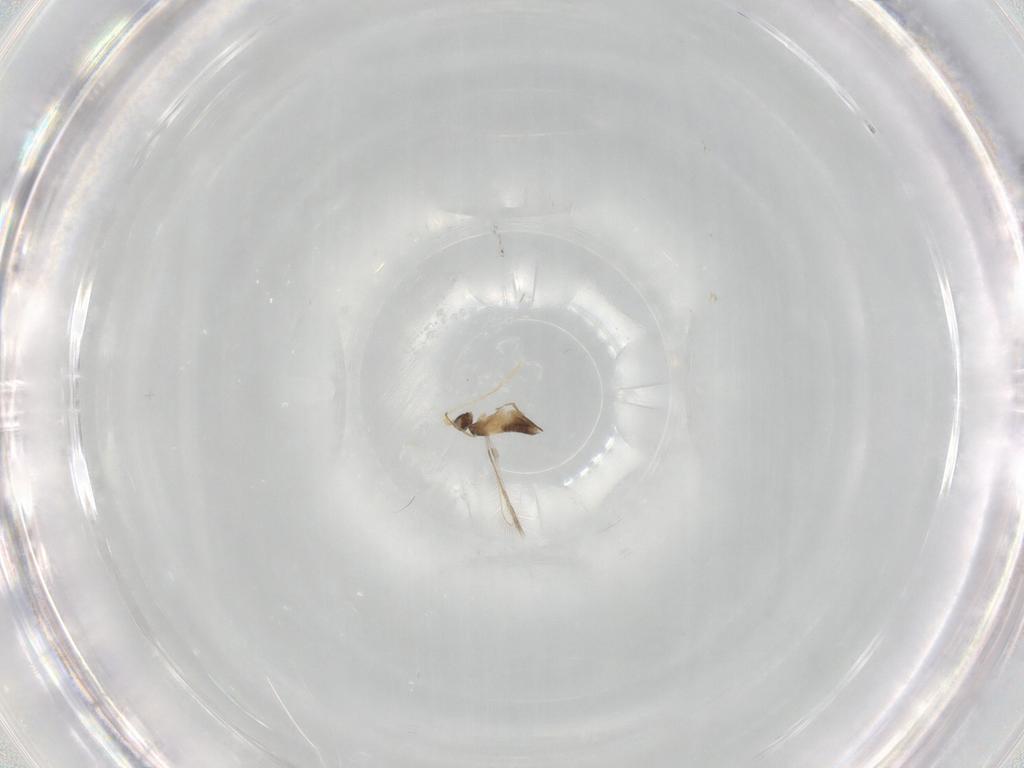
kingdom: Animalia
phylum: Arthropoda
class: Insecta
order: Hymenoptera
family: Mymaridae
